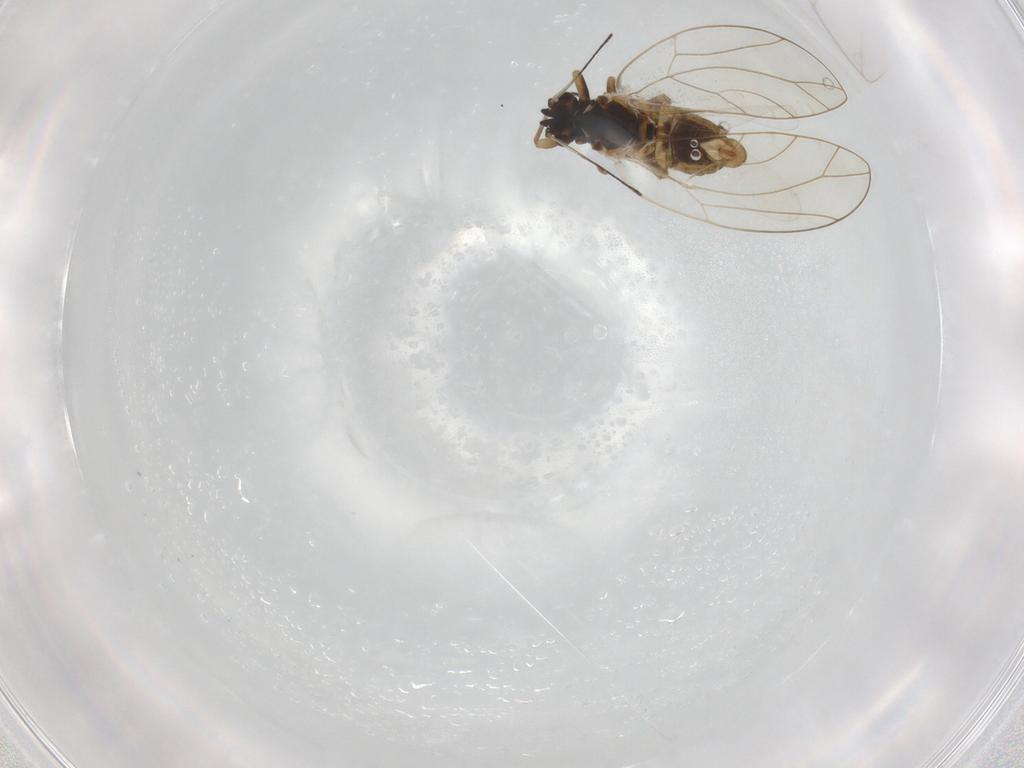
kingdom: Animalia
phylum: Arthropoda
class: Insecta
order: Hemiptera
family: Triozidae
